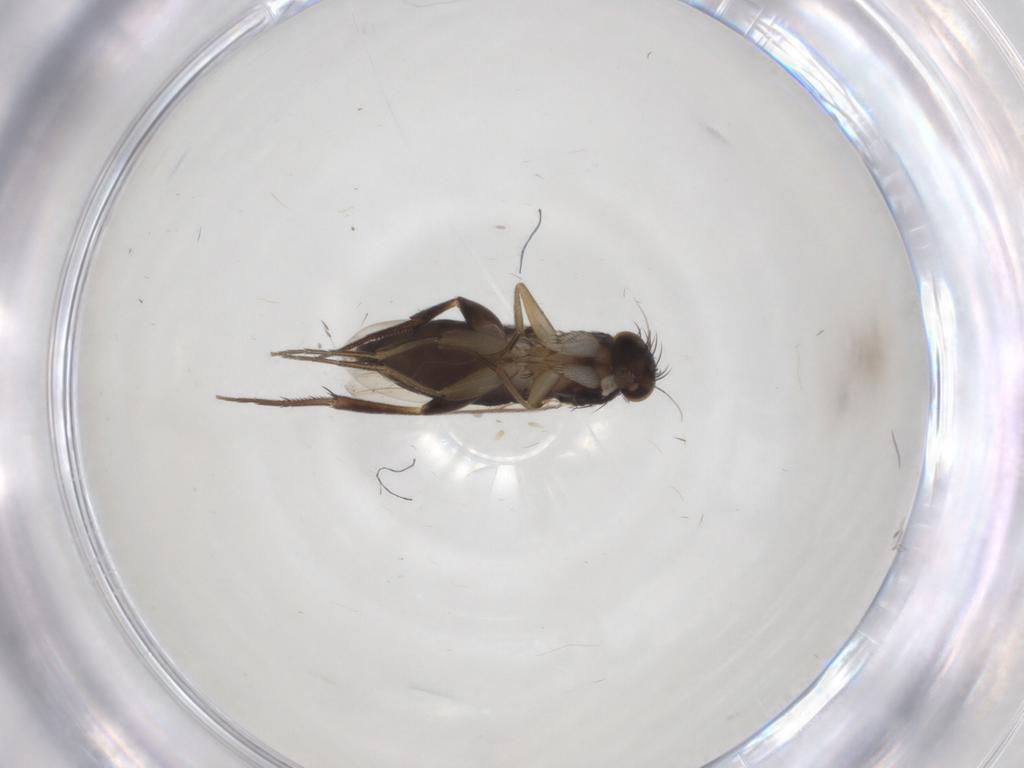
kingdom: Animalia
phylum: Arthropoda
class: Insecta
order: Diptera
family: Phoridae
